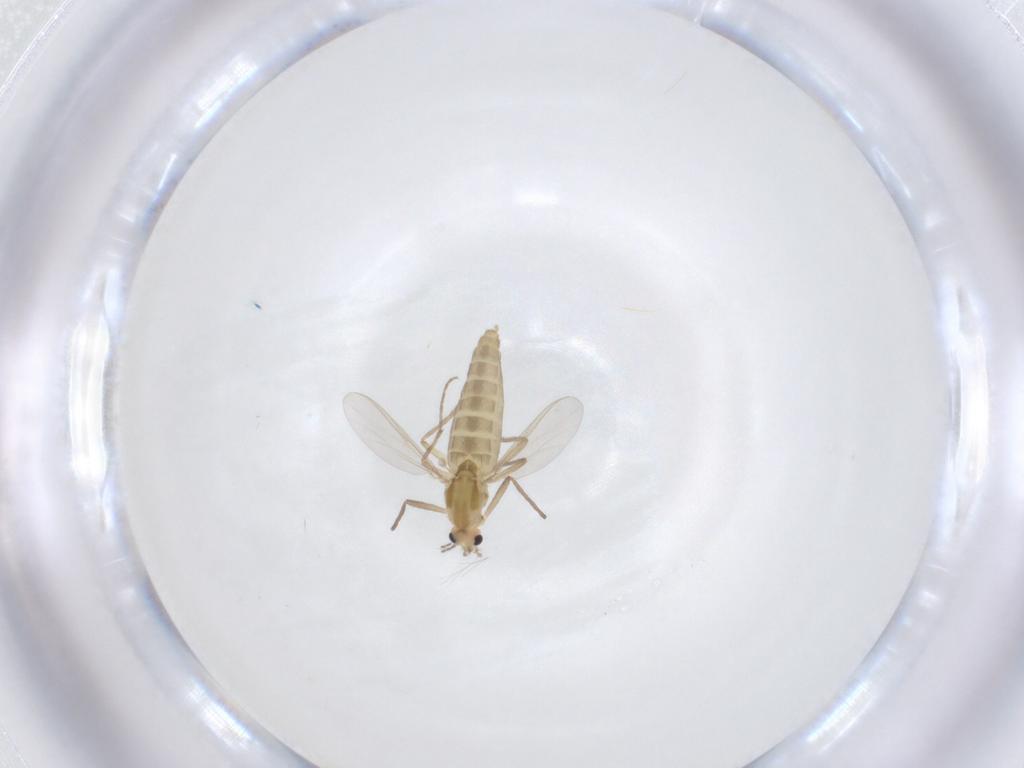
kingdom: Animalia
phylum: Arthropoda
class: Insecta
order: Diptera
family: Chironomidae
